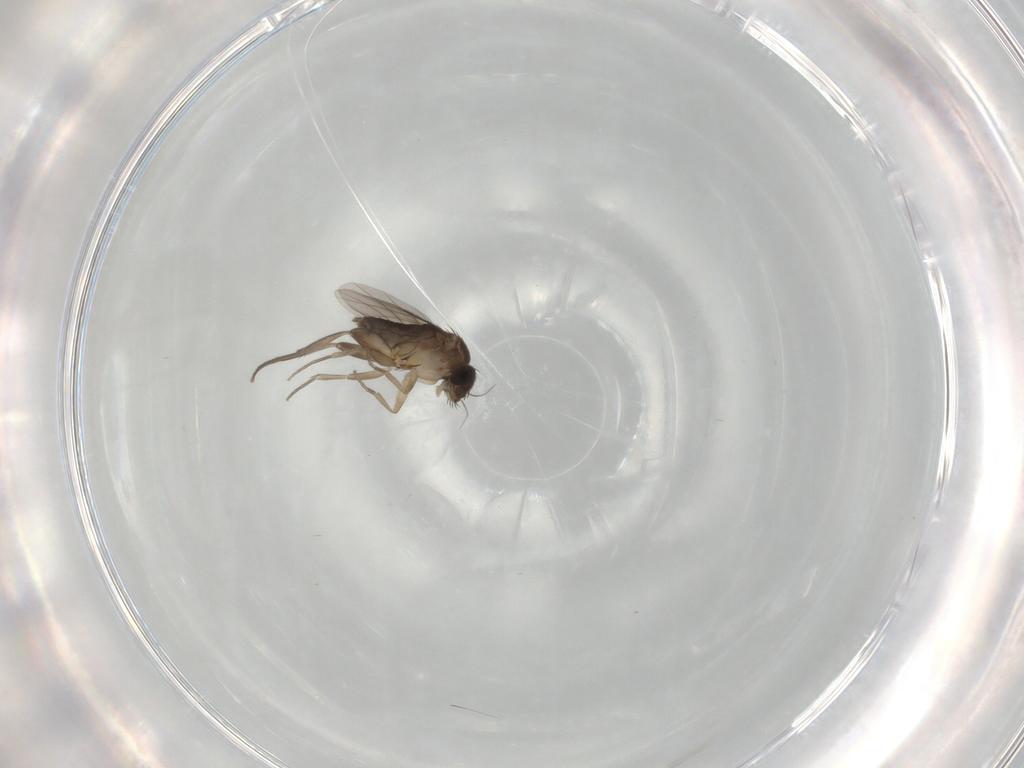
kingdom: Animalia
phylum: Arthropoda
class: Insecta
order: Diptera
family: Phoridae
